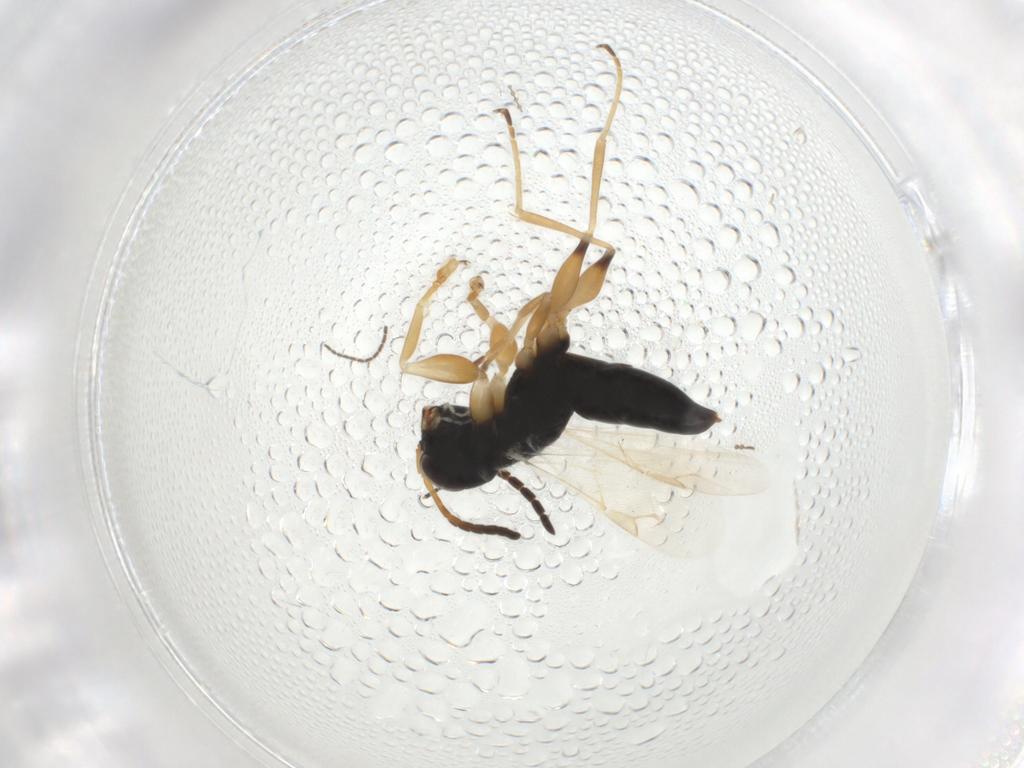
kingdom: Animalia
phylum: Arthropoda
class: Insecta
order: Hymenoptera
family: Dryinidae
